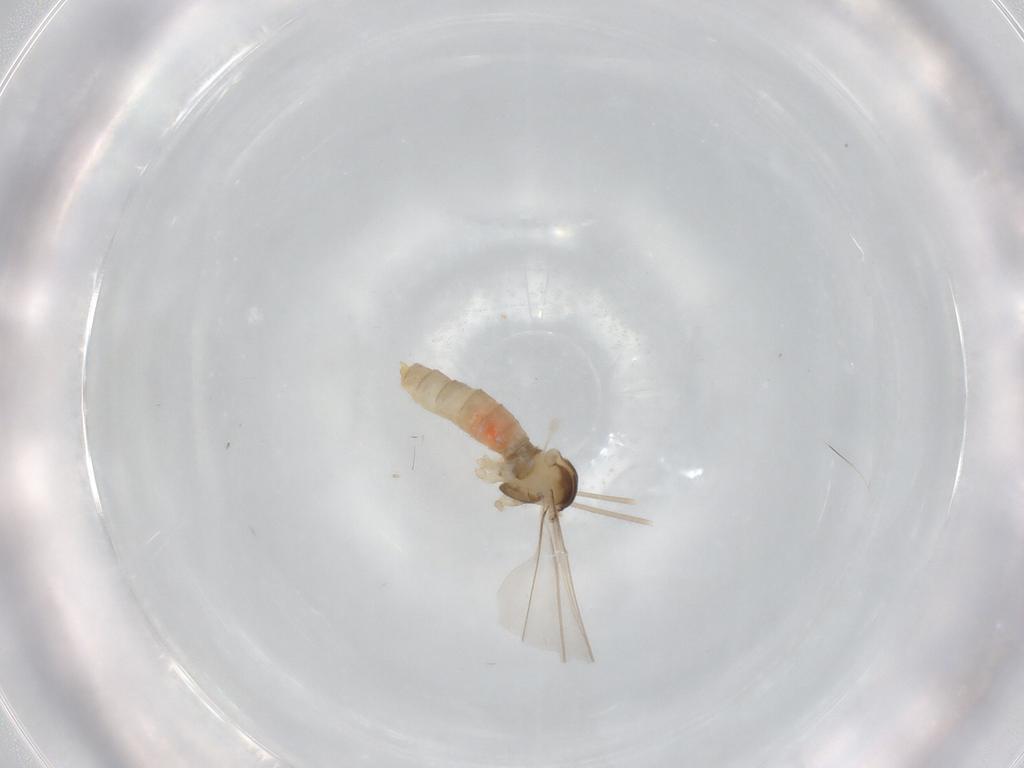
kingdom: Animalia
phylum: Arthropoda
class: Insecta
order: Diptera
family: Cecidomyiidae
